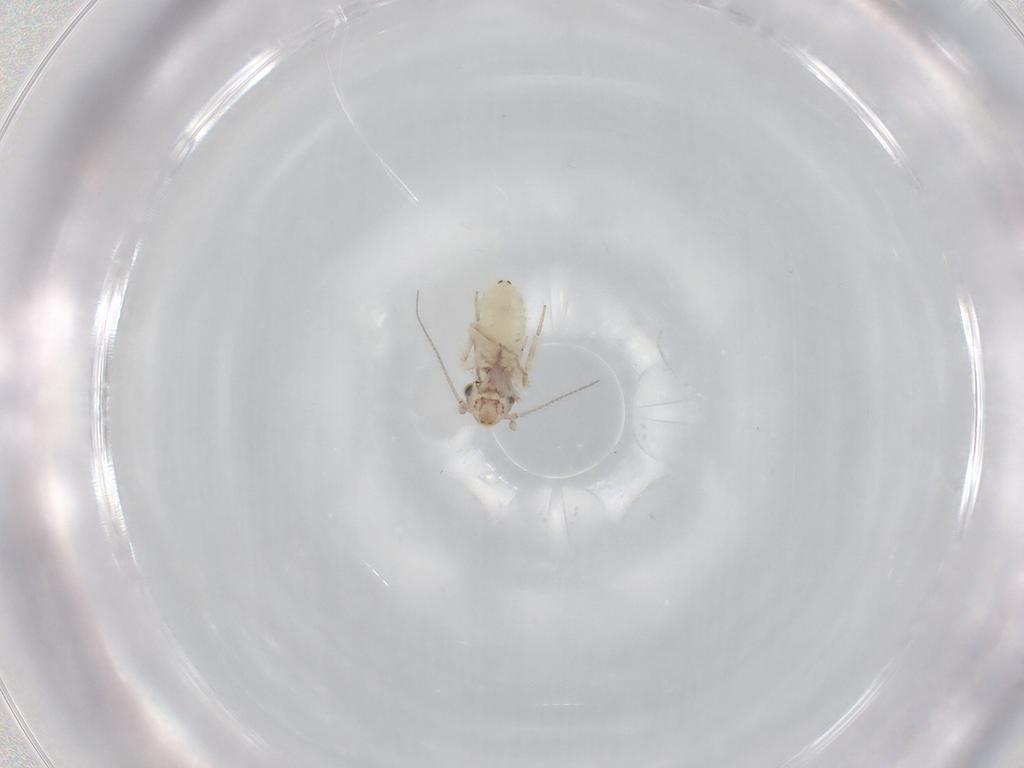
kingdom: Animalia
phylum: Arthropoda
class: Insecta
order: Psocodea
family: Lepidopsocidae
